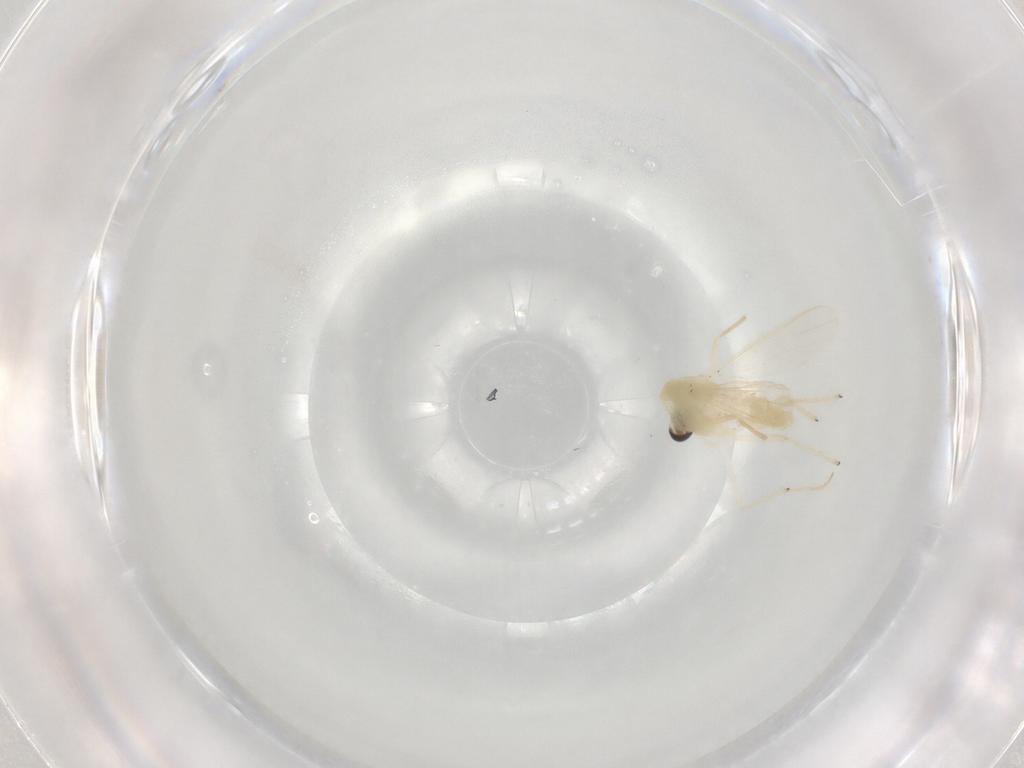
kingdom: Animalia
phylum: Arthropoda
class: Insecta
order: Diptera
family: Chironomidae
